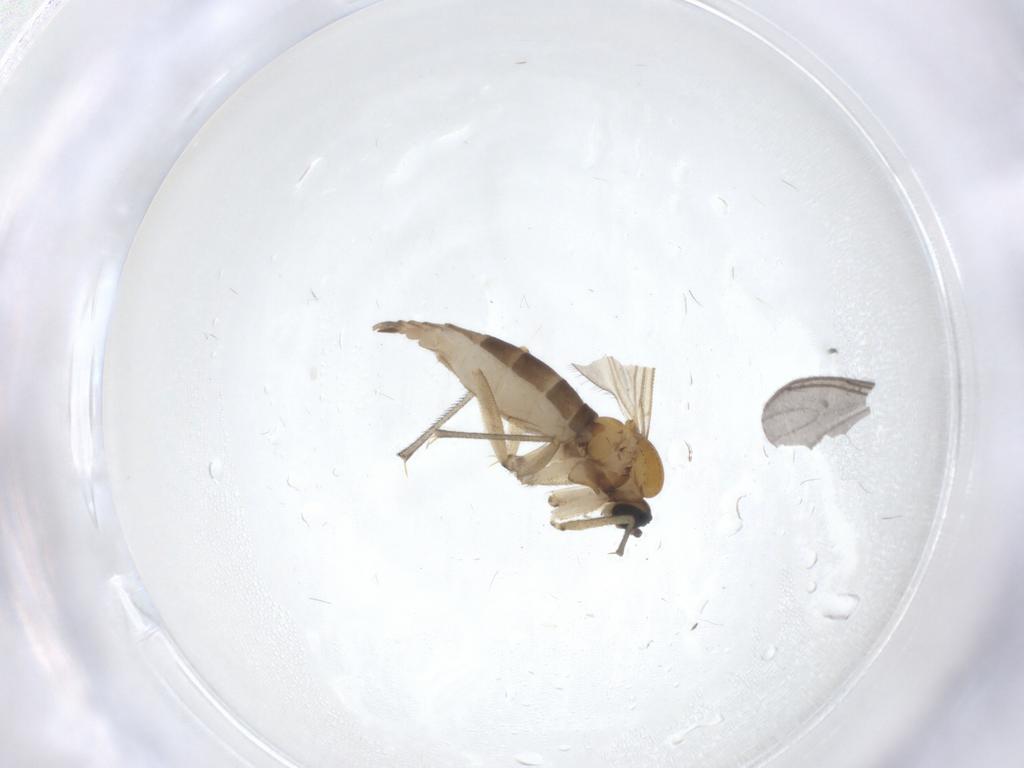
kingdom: Animalia
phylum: Arthropoda
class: Insecta
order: Diptera
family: Sciaridae
